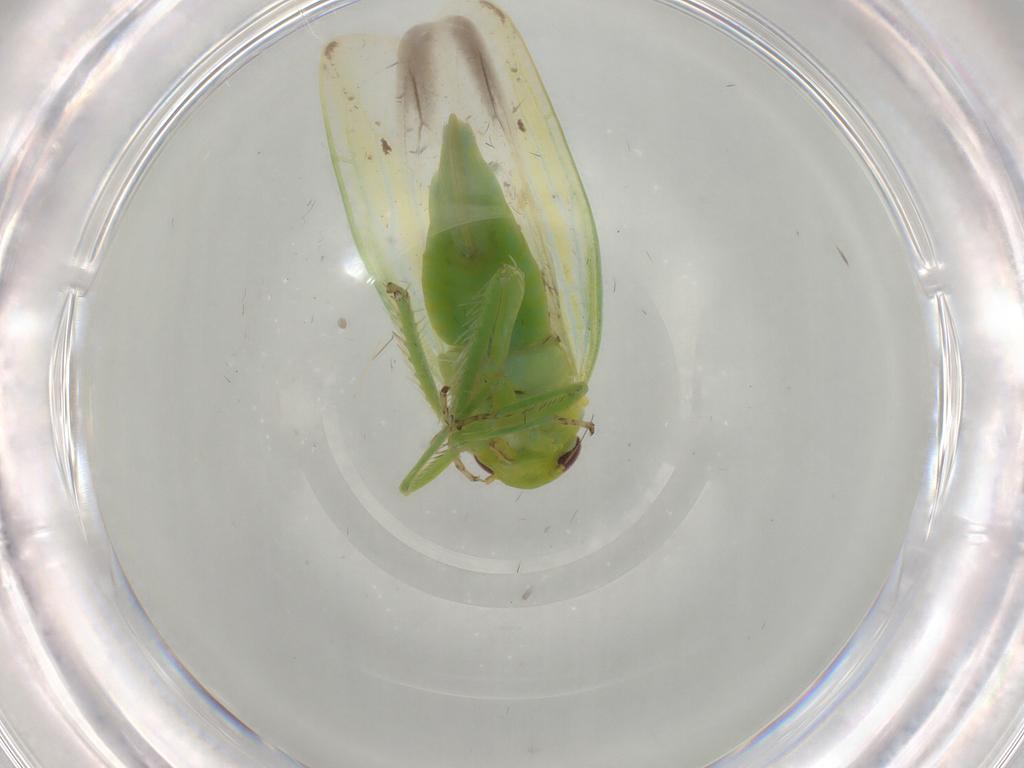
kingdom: Animalia
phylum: Arthropoda
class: Insecta
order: Hemiptera
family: Cicadellidae
